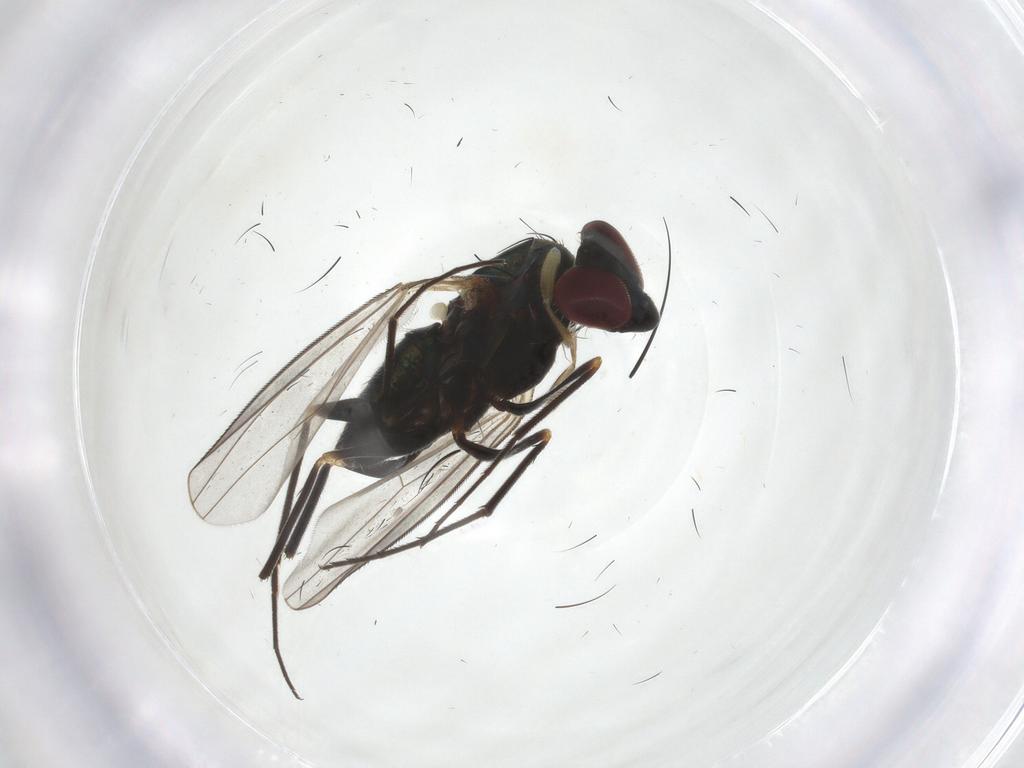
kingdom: Animalia
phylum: Arthropoda
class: Insecta
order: Diptera
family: Dolichopodidae
